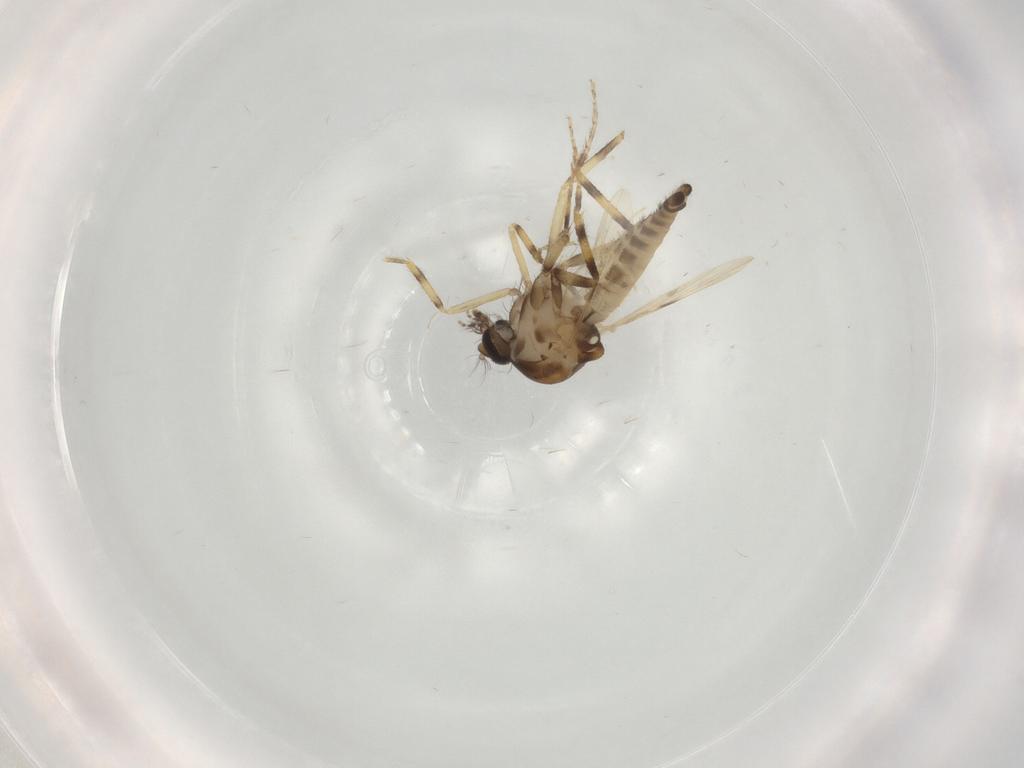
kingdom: Animalia
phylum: Arthropoda
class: Insecta
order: Diptera
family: Ceratopogonidae
